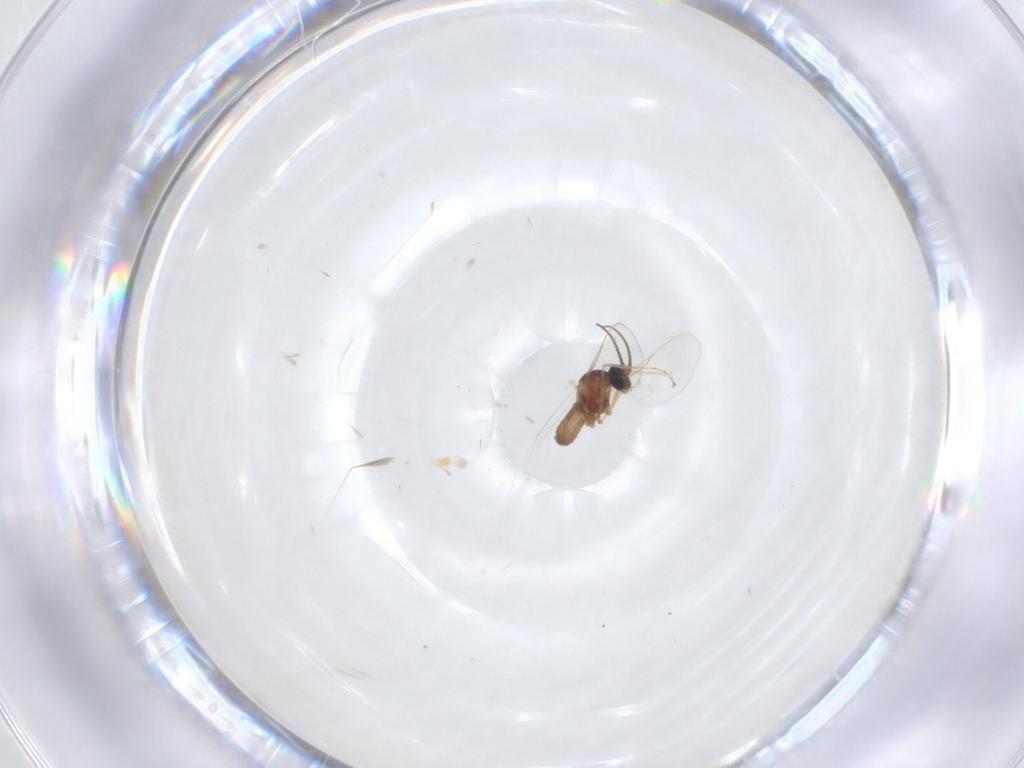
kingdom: Animalia
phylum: Arthropoda
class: Insecta
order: Diptera
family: Cecidomyiidae
